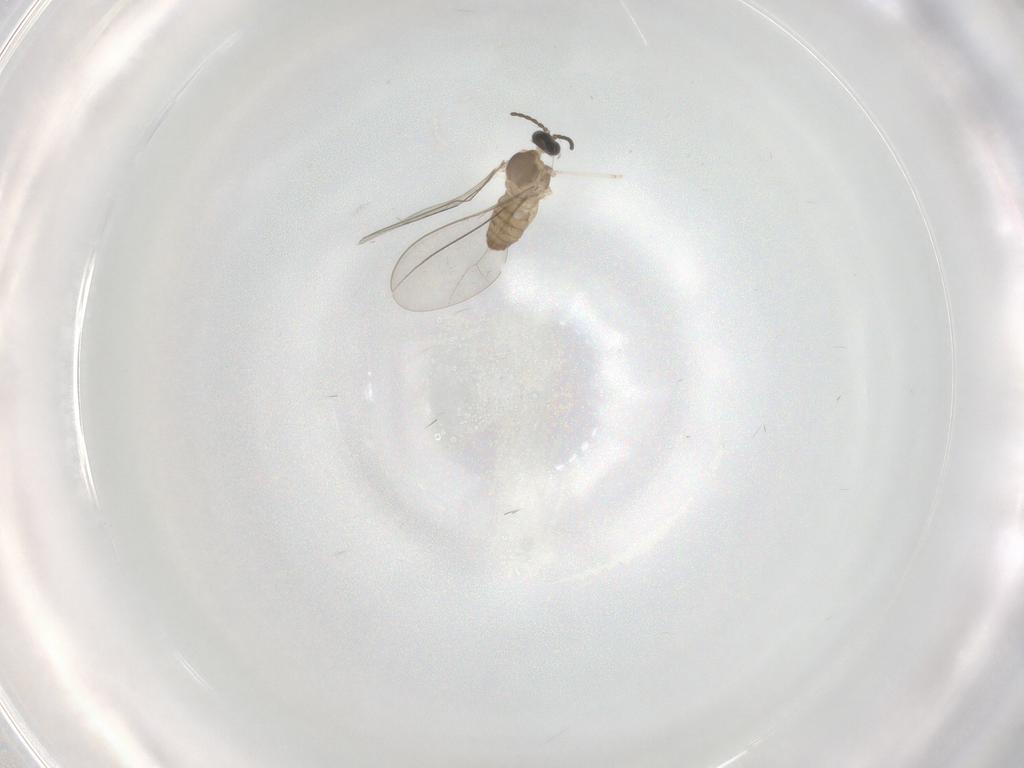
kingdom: Animalia
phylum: Arthropoda
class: Insecta
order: Diptera
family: Cecidomyiidae
